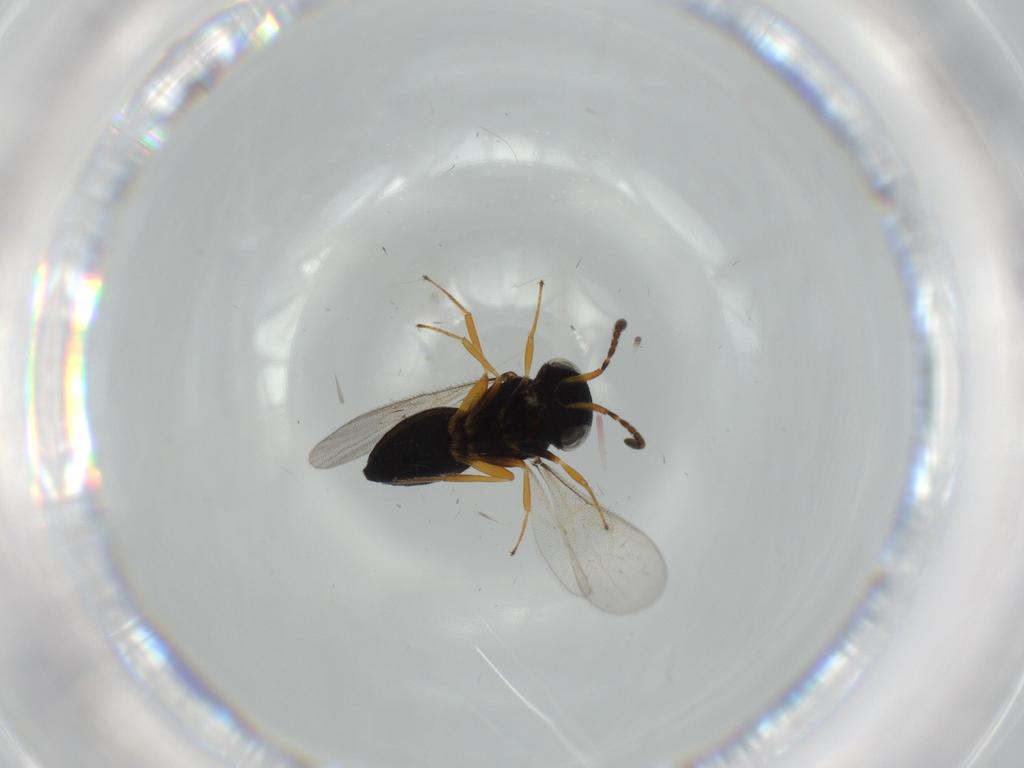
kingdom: Animalia
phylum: Arthropoda
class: Insecta
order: Hymenoptera
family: Scelionidae
